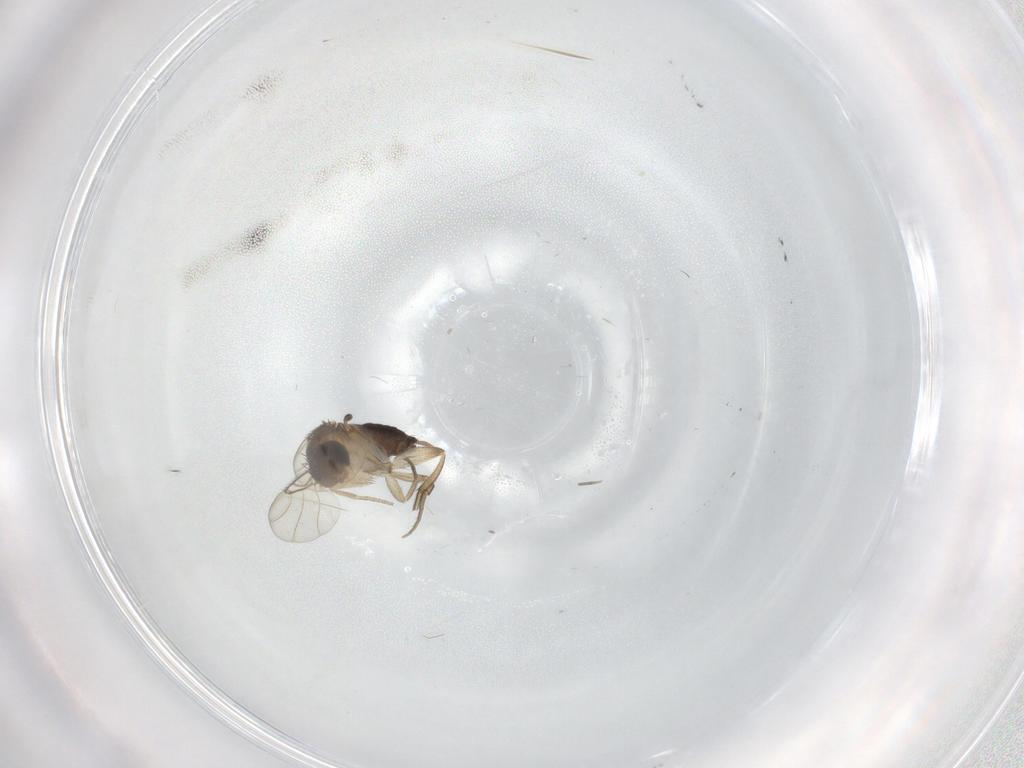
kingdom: Animalia
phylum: Arthropoda
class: Insecta
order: Diptera
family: Cecidomyiidae
